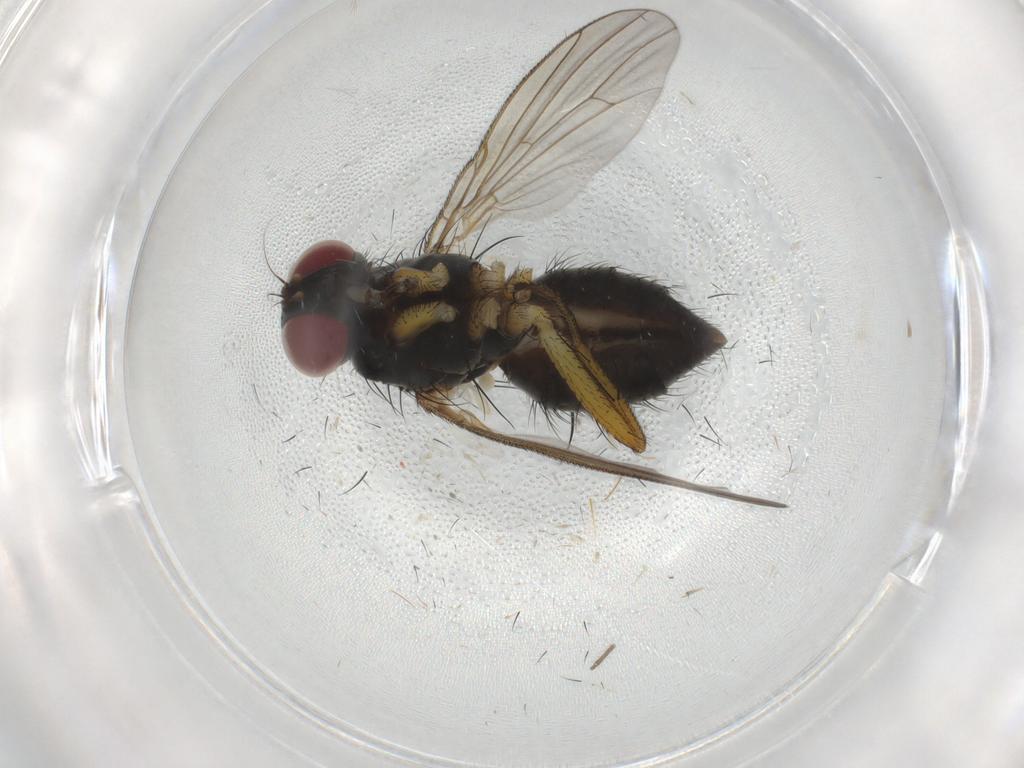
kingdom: Animalia
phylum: Arthropoda
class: Insecta
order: Diptera
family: Muscidae
